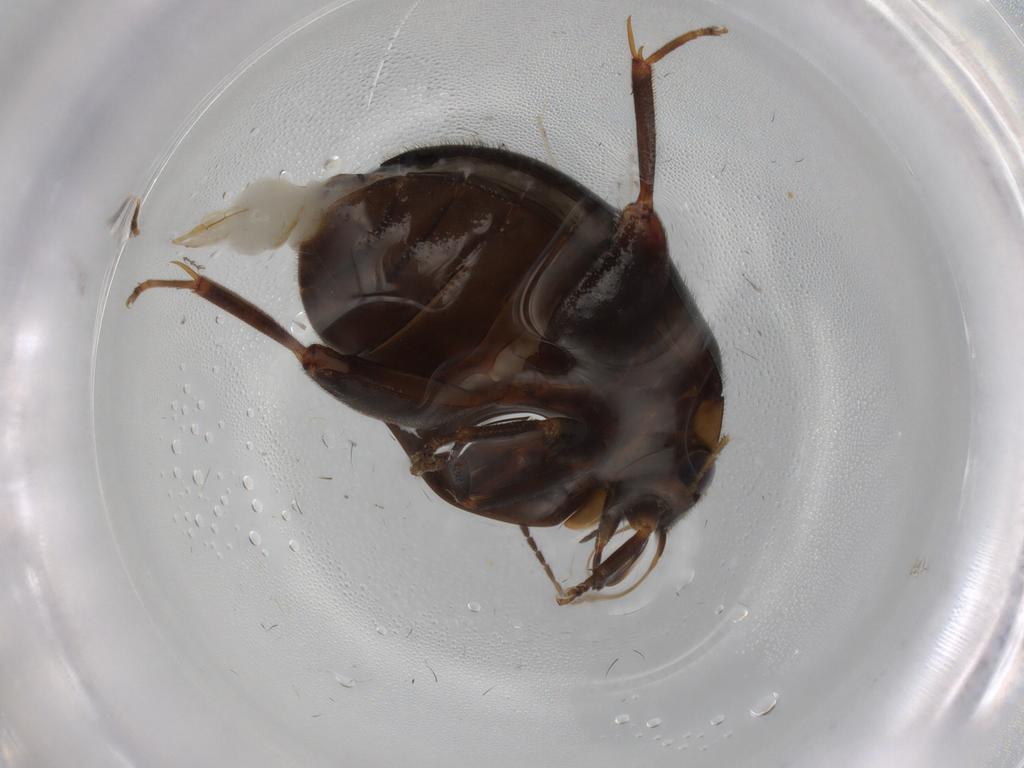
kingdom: Animalia
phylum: Arthropoda
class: Insecta
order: Coleoptera
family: Scirtidae
